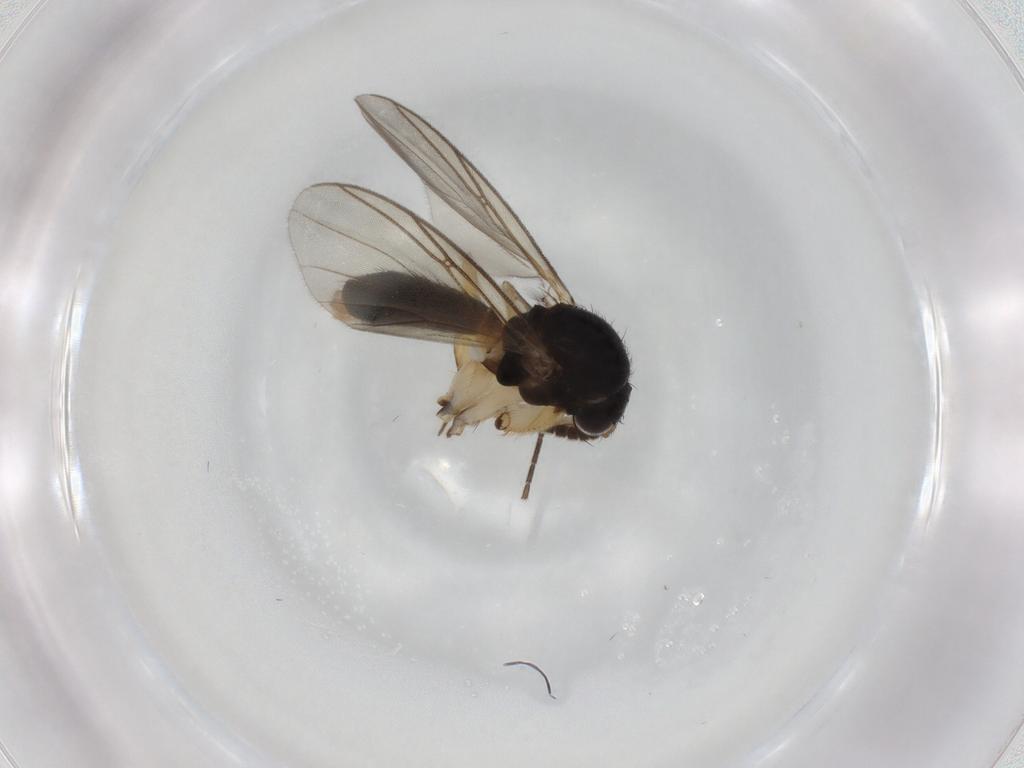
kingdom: Animalia
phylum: Arthropoda
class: Insecta
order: Diptera
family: Mycetophilidae
